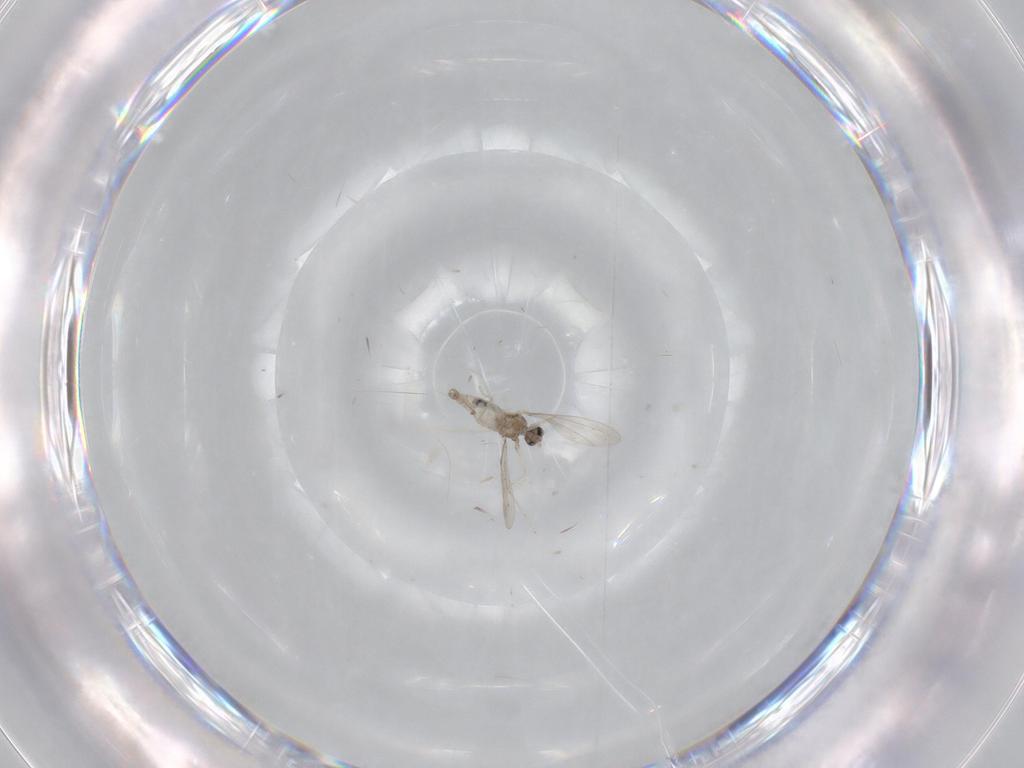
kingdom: Animalia
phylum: Arthropoda
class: Insecta
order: Diptera
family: Cecidomyiidae
